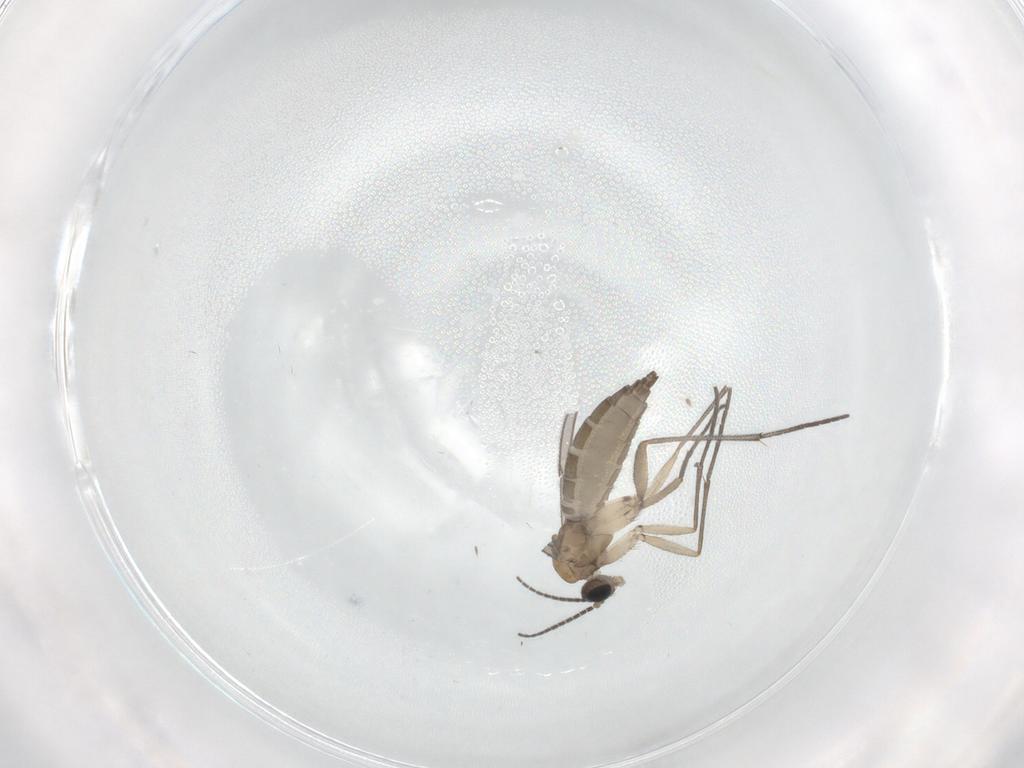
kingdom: Animalia
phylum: Arthropoda
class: Insecta
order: Diptera
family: Sciaridae
